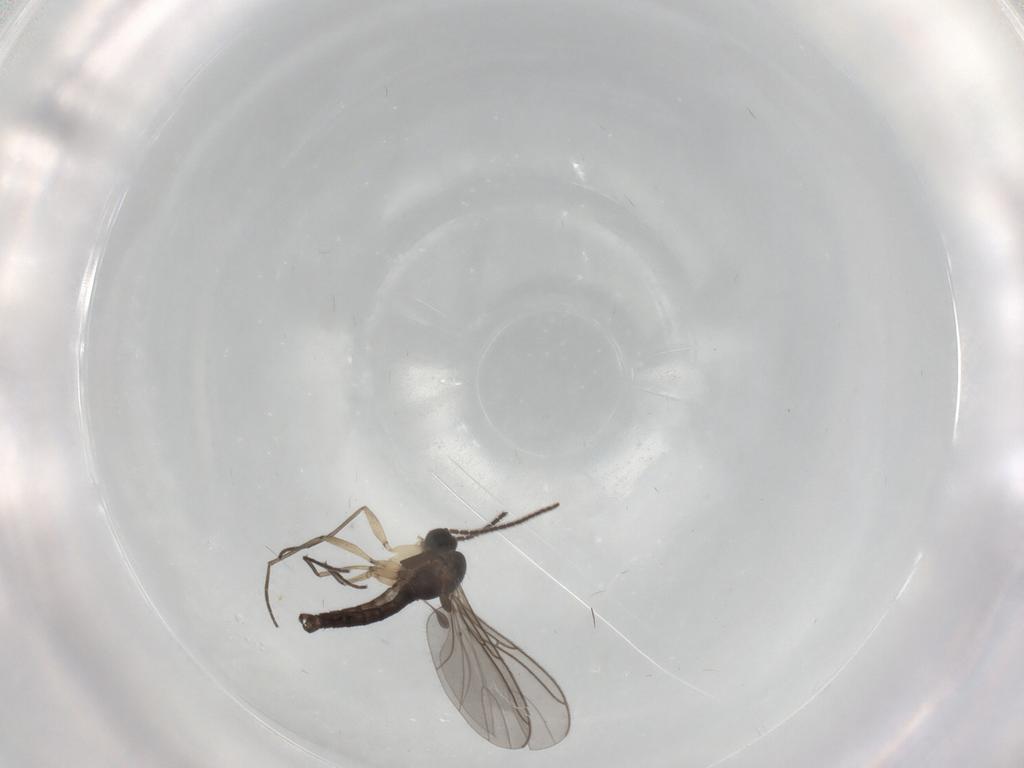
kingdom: Animalia
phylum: Arthropoda
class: Insecta
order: Diptera
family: Sciaridae
